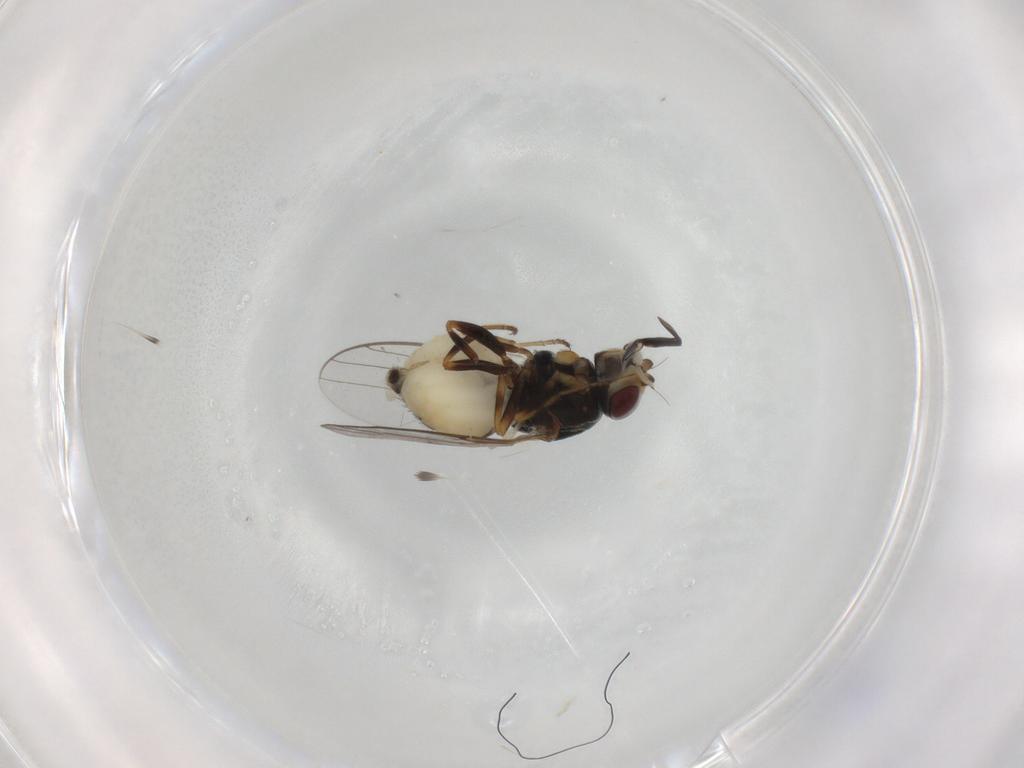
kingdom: Animalia
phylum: Arthropoda
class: Insecta
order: Diptera
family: Chloropidae
